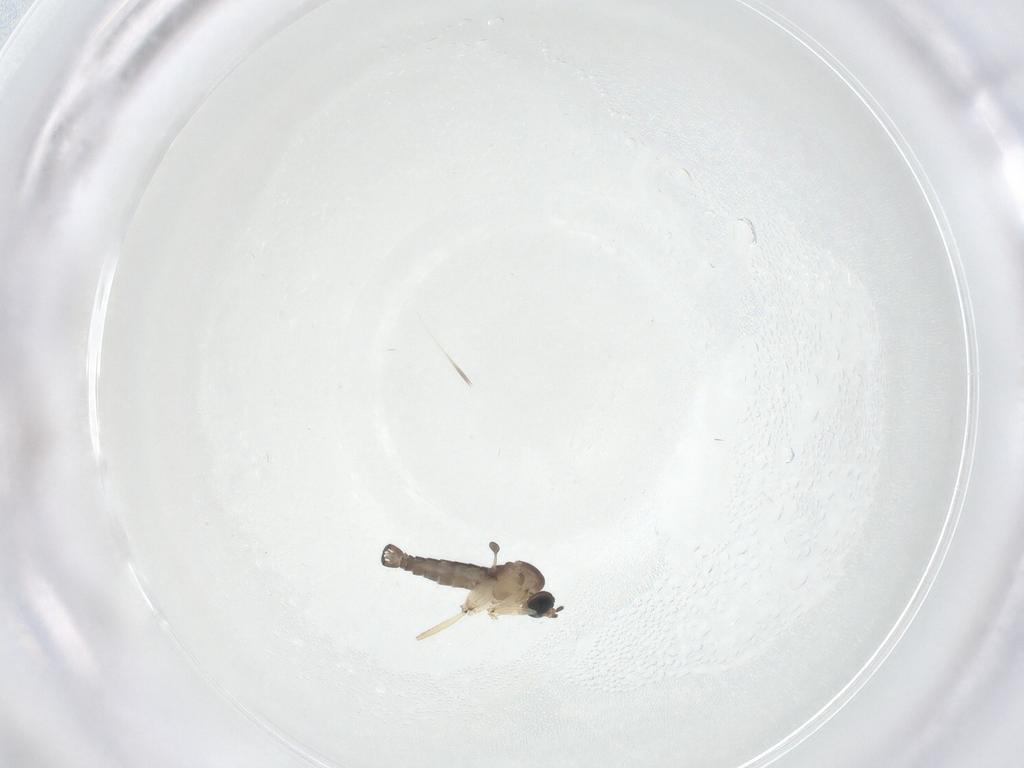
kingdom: Animalia
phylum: Arthropoda
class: Insecta
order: Diptera
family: Sciaridae
